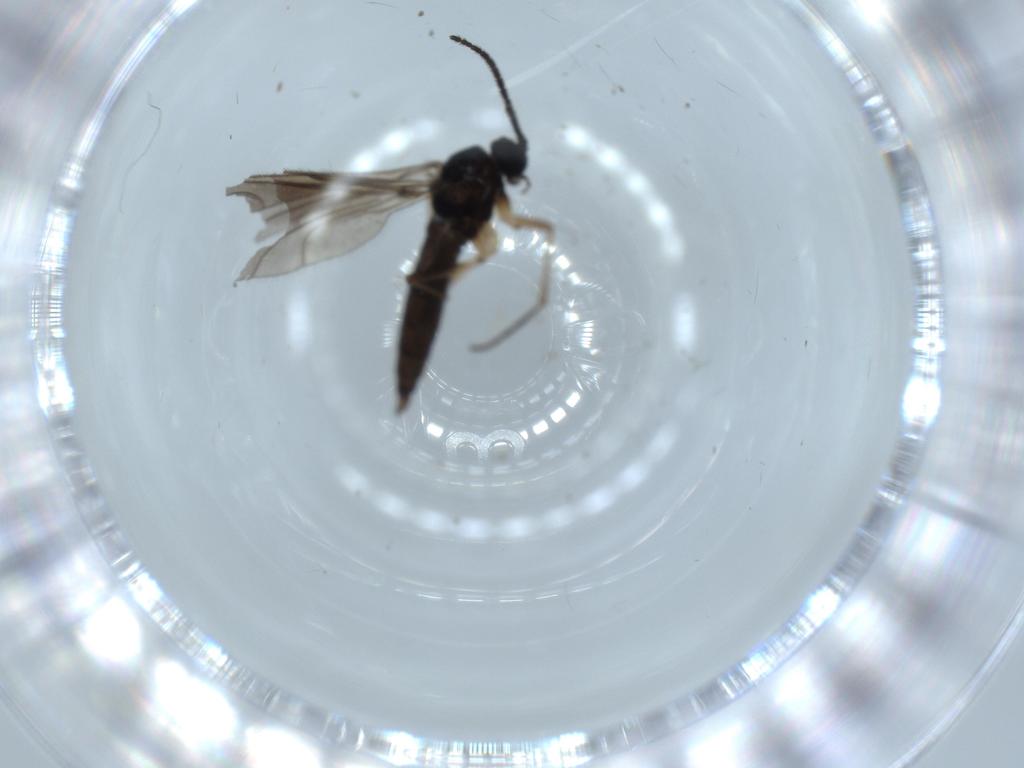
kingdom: Animalia
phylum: Arthropoda
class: Insecta
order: Diptera
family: Sciaridae
